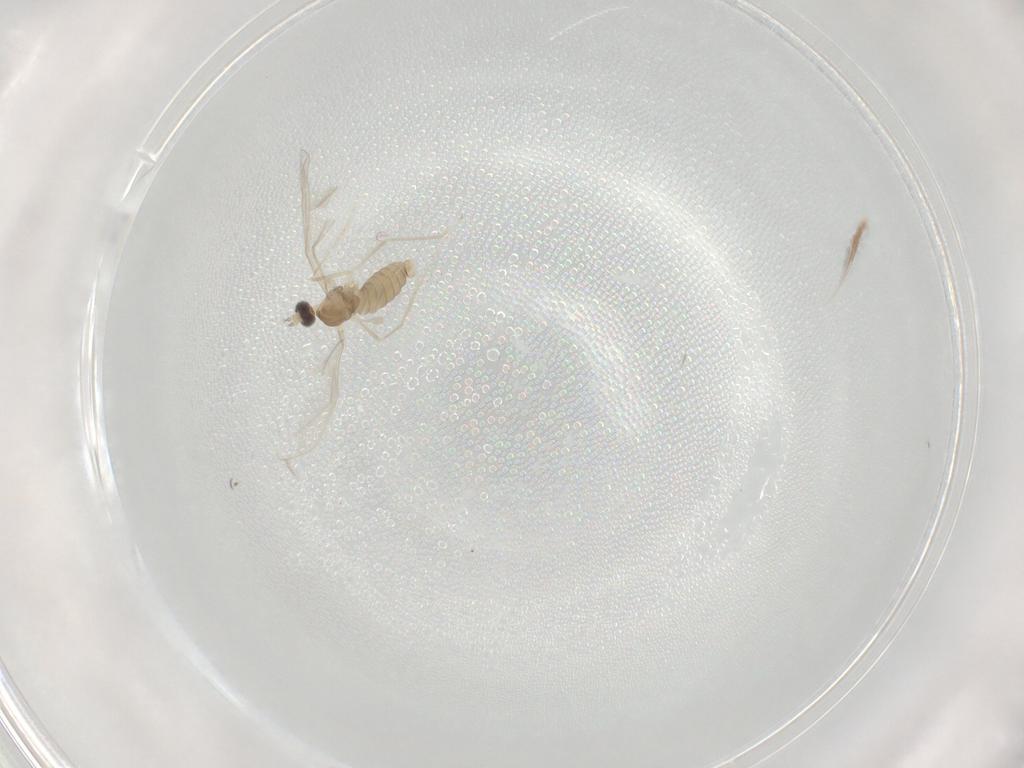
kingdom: Animalia
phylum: Arthropoda
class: Insecta
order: Diptera
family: Cecidomyiidae
